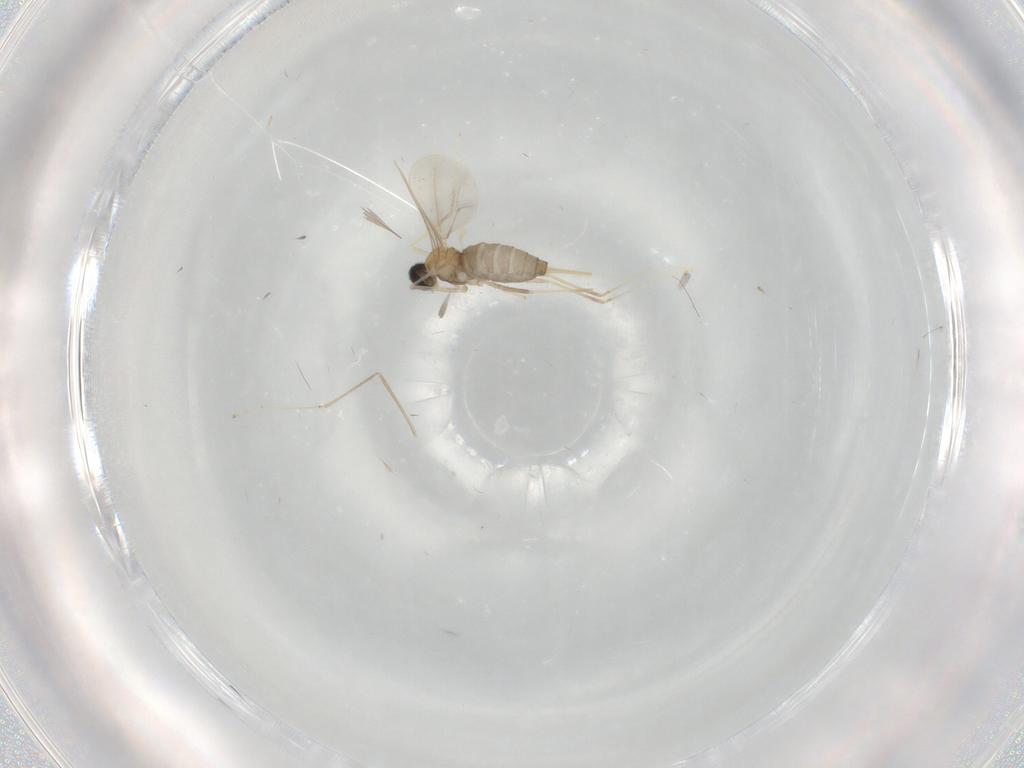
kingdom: Animalia
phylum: Arthropoda
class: Insecta
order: Diptera
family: Cecidomyiidae
